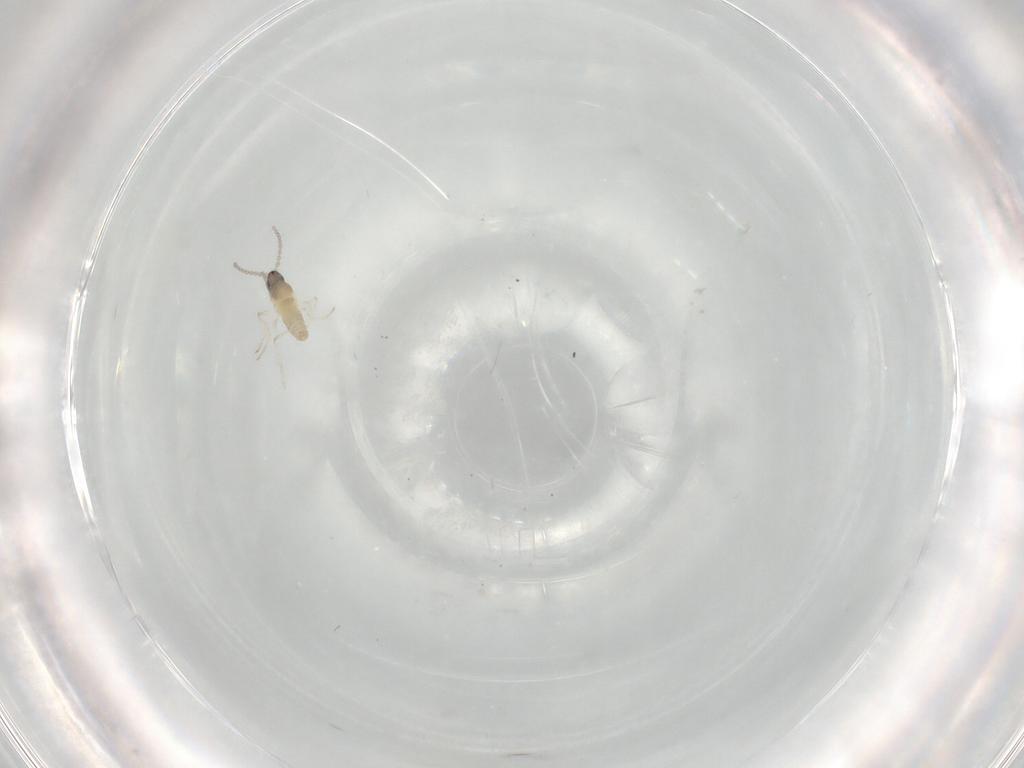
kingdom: Animalia
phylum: Arthropoda
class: Insecta
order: Diptera
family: Cecidomyiidae
